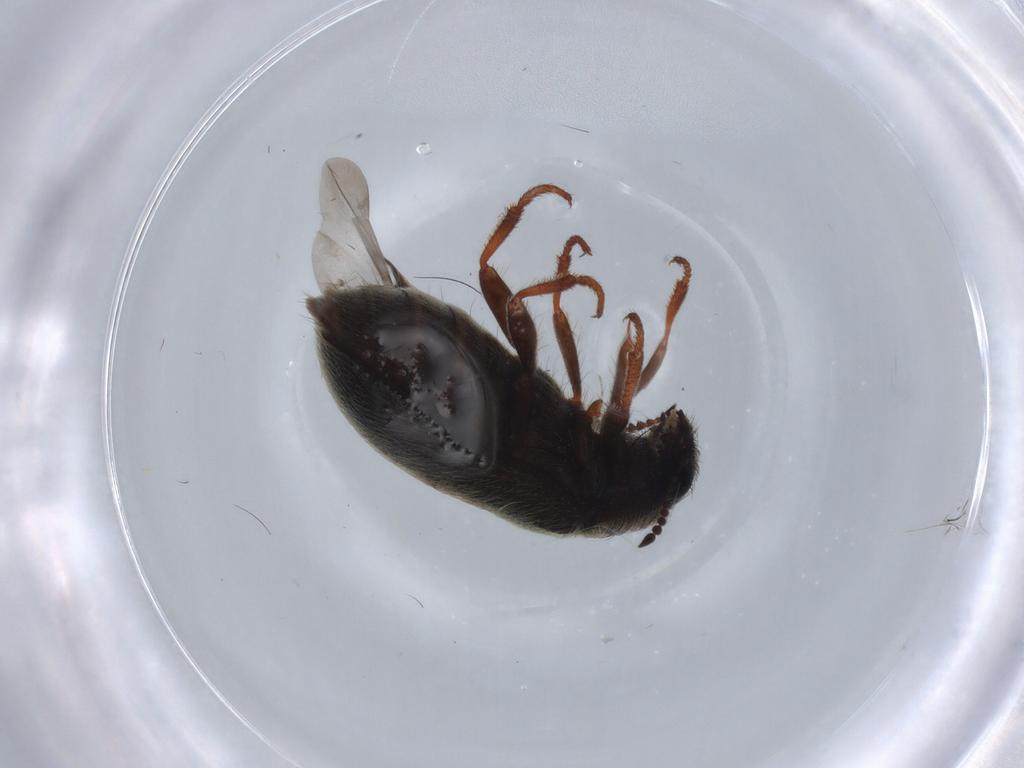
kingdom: Animalia
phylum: Arthropoda
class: Insecta
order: Coleoptera
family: Melyridae
